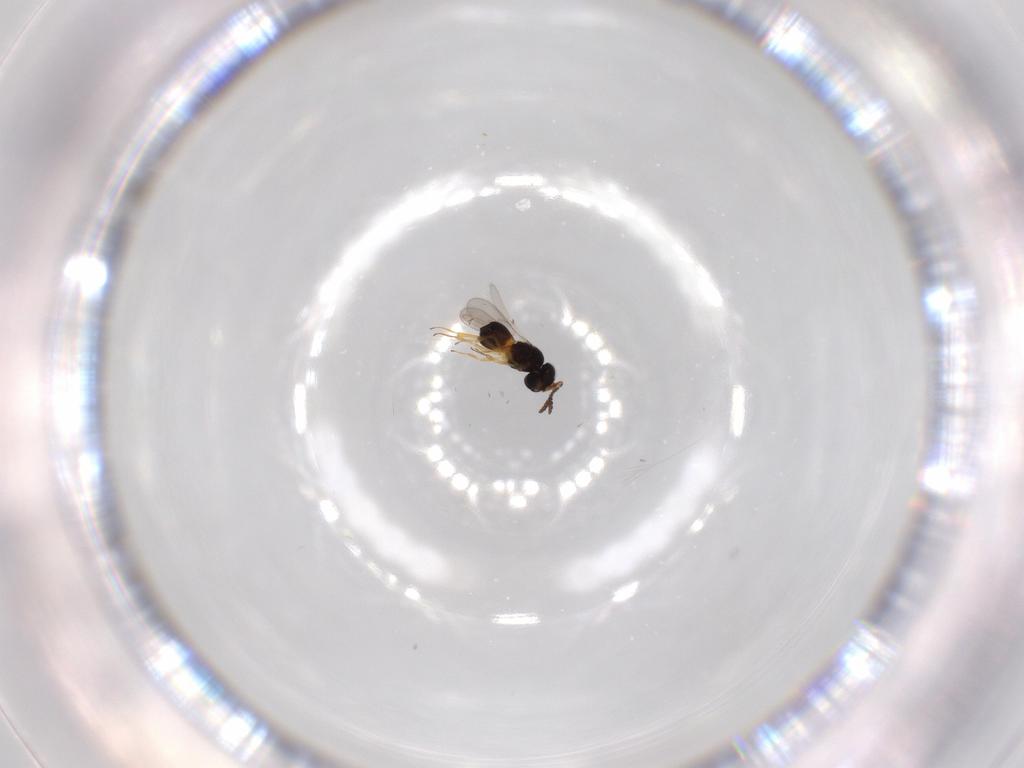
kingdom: Animalia
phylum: Arthropoda
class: Insecta
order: Hymenoptera
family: Scelionidae
